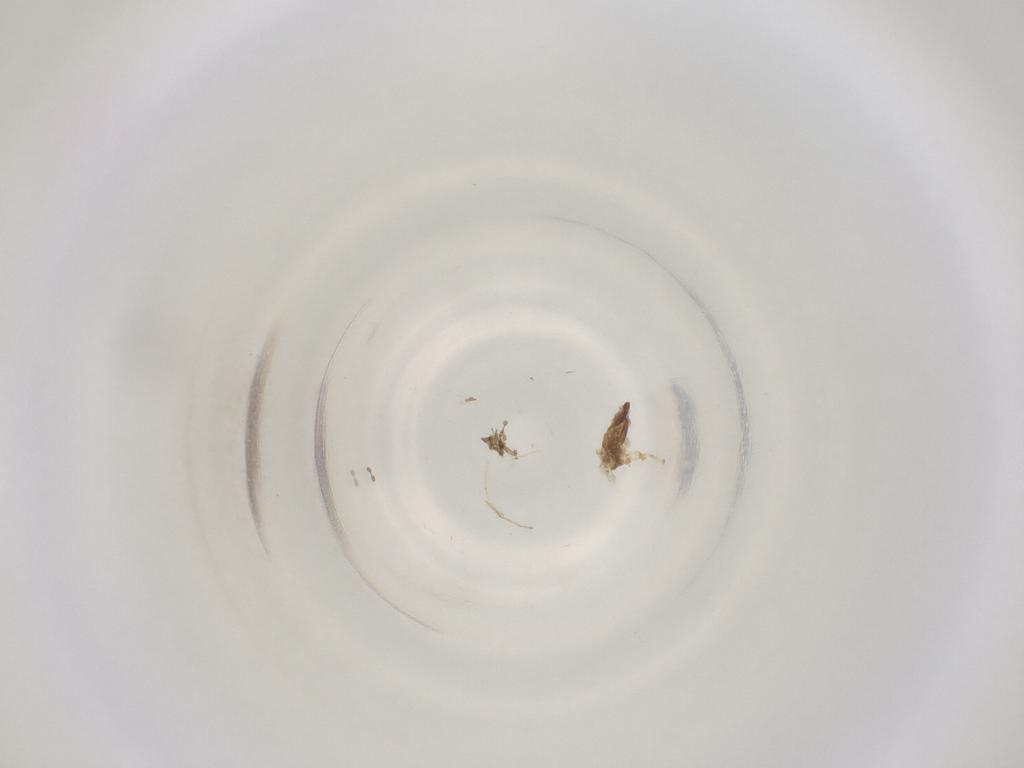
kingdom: Animalia
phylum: Arthropoda
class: Insecta
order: Diptera
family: Cecidomyiidae
